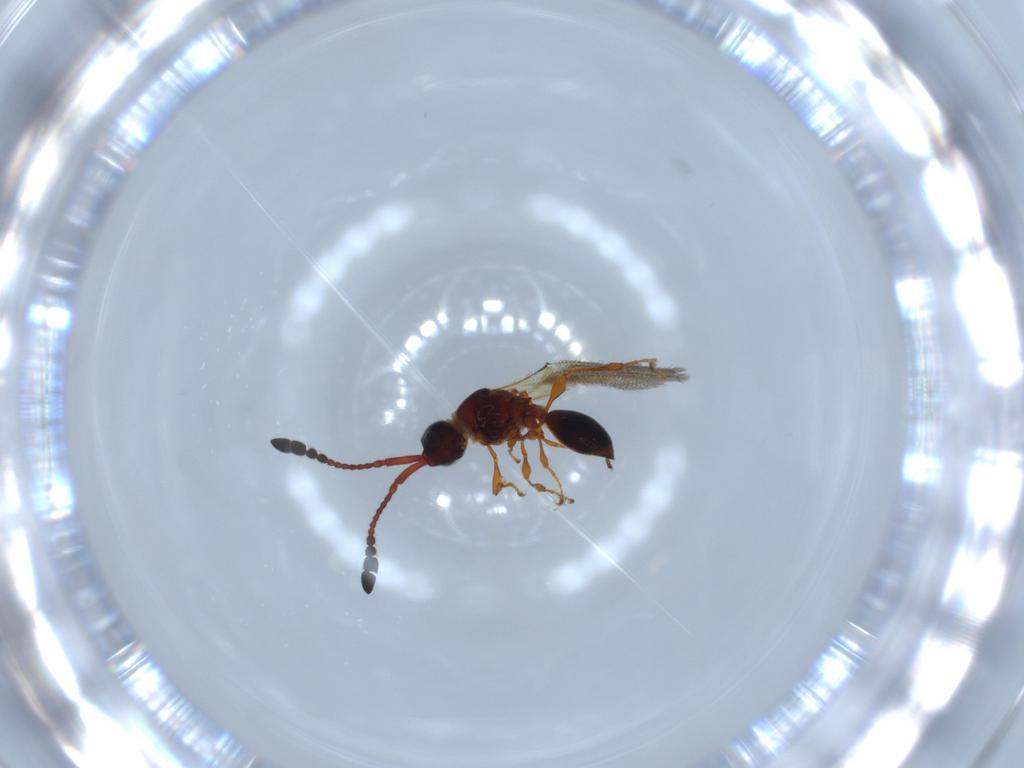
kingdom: Animalia
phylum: Arthropoda
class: Insecta
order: Hymenoptera
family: Diapriidae
